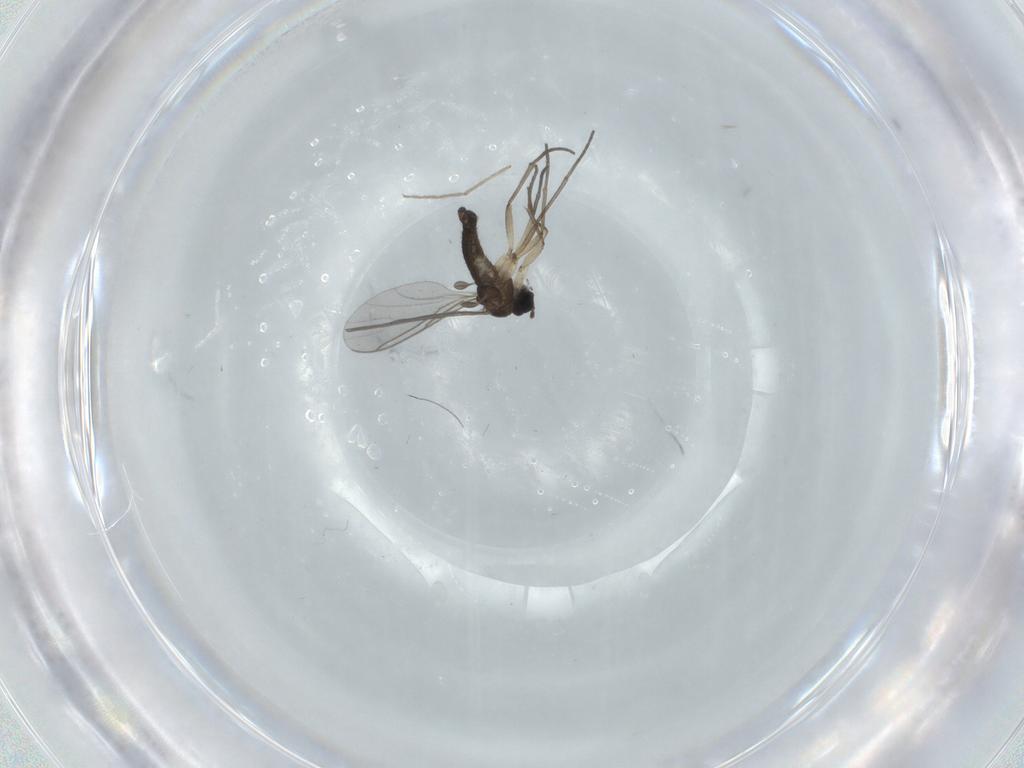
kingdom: Animalia
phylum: Arthropoda
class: Insecta
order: Diptera
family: Sciaridae
